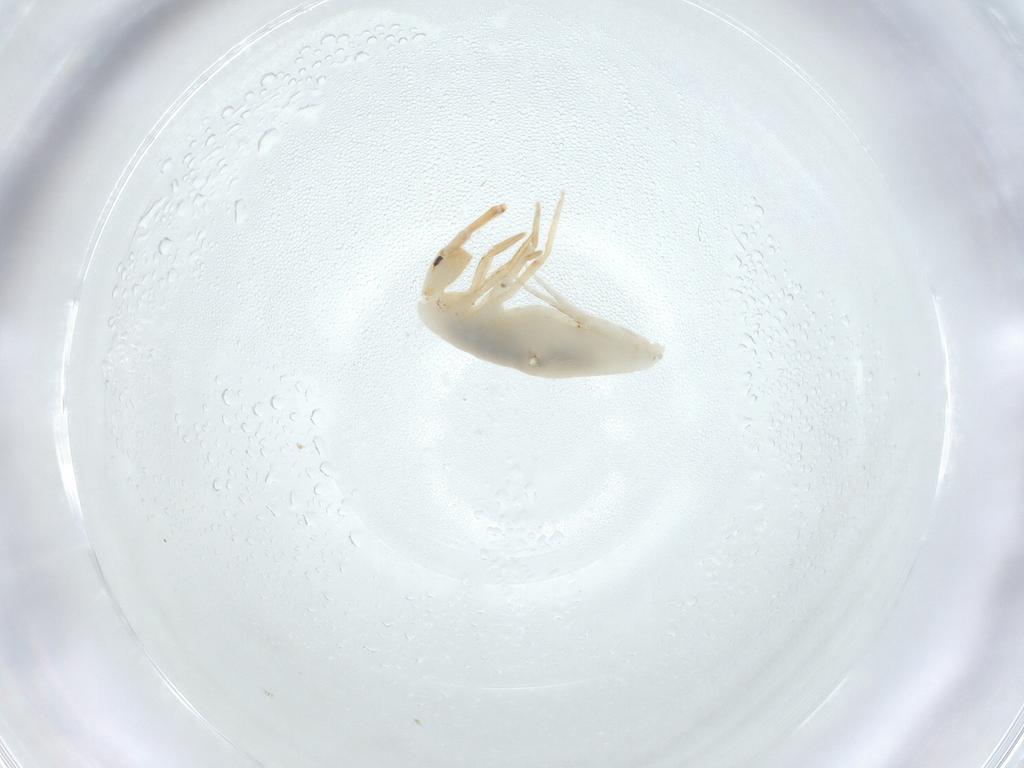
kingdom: Animalia
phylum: Arthropoda
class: Collembola
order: Entomobryomorpha
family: Entomobryidae
